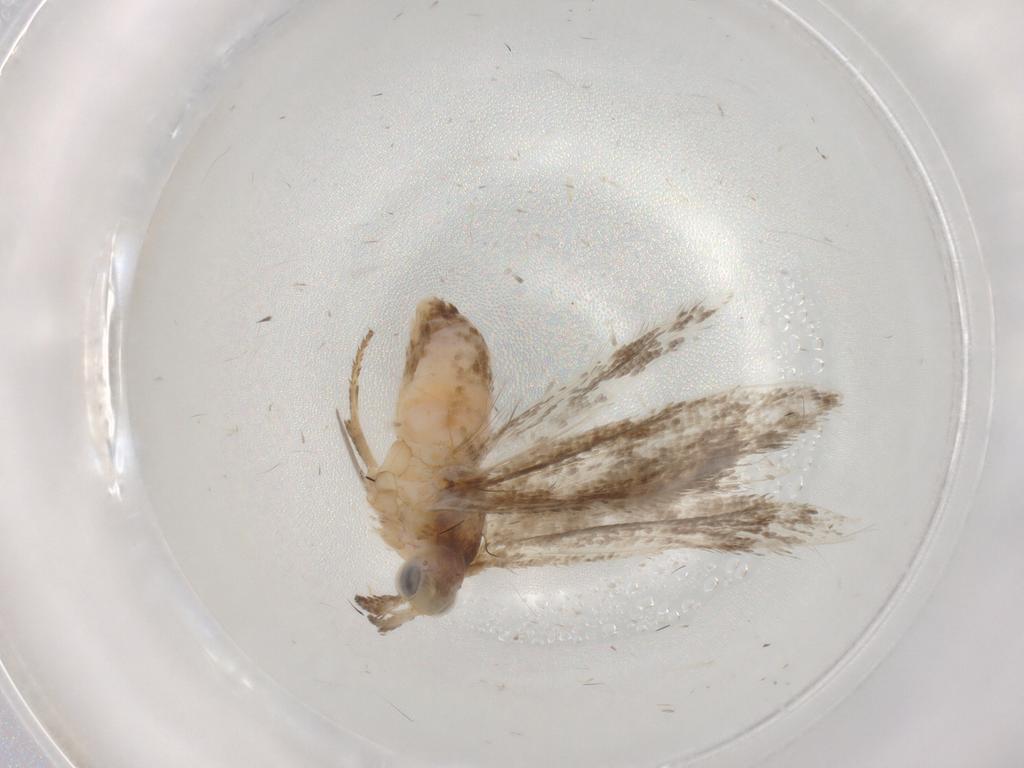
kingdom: Animalia
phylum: Arthropoda
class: Insecta
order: Lepidoptera
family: Plutellidae
